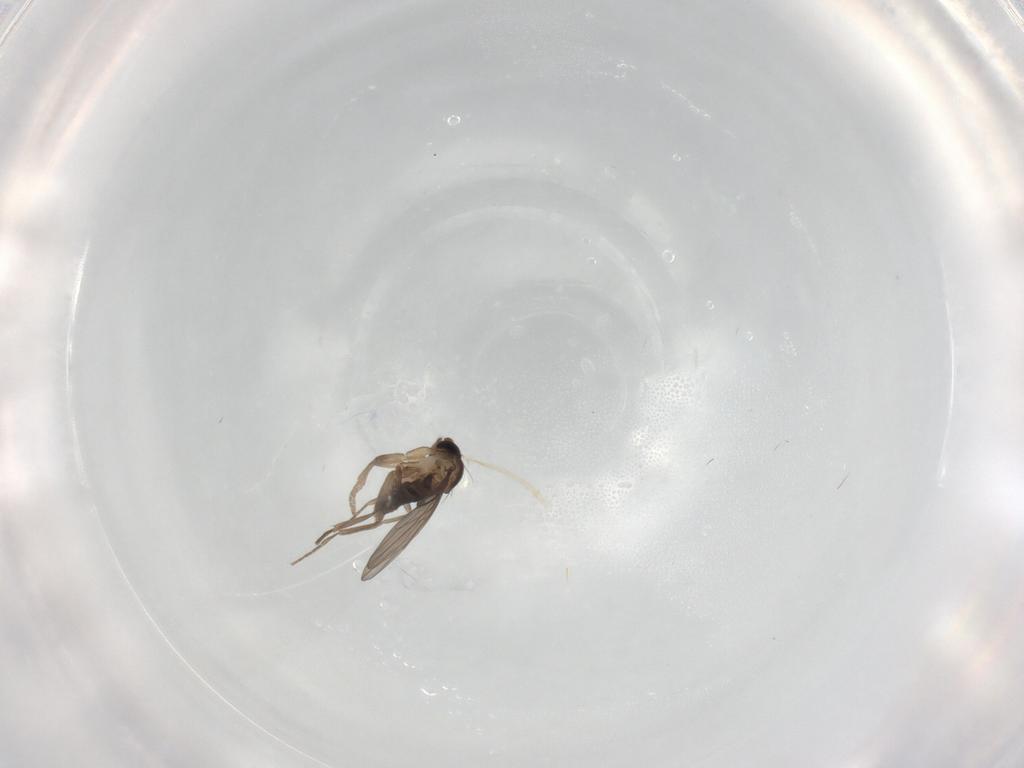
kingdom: Animalia
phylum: Arthropoda
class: Insecta
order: Diptera
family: Phoridae
